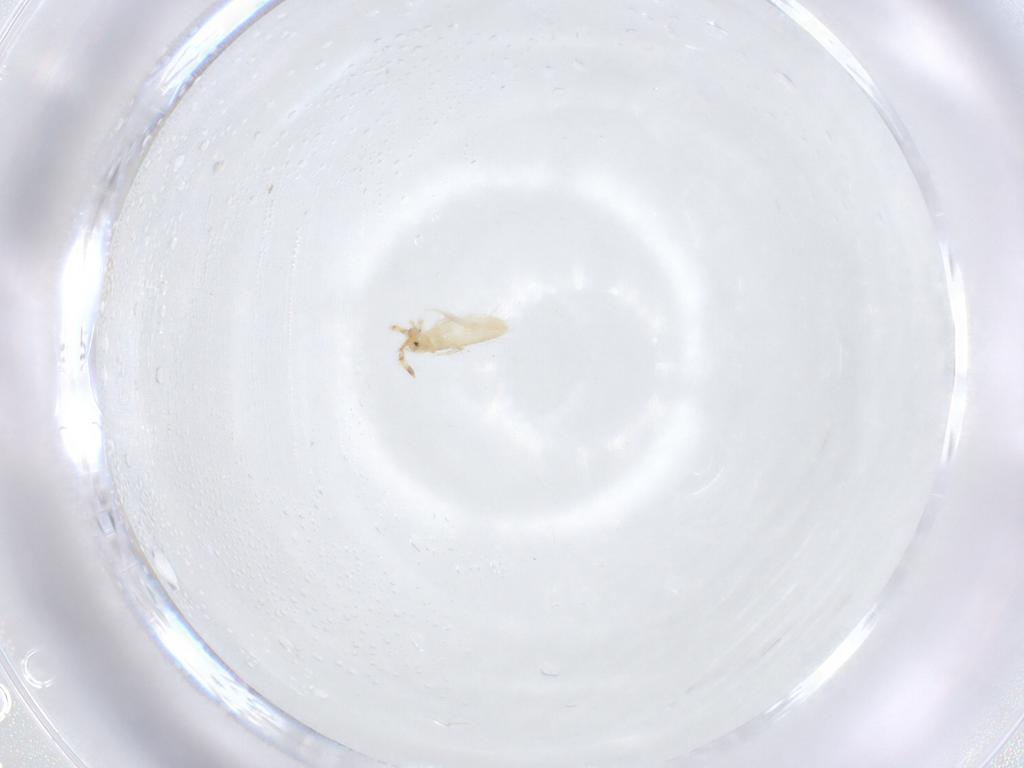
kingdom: Animalia
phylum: Arthropoda
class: Collembola
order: Entomobryomorpha
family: Entomobryidae
